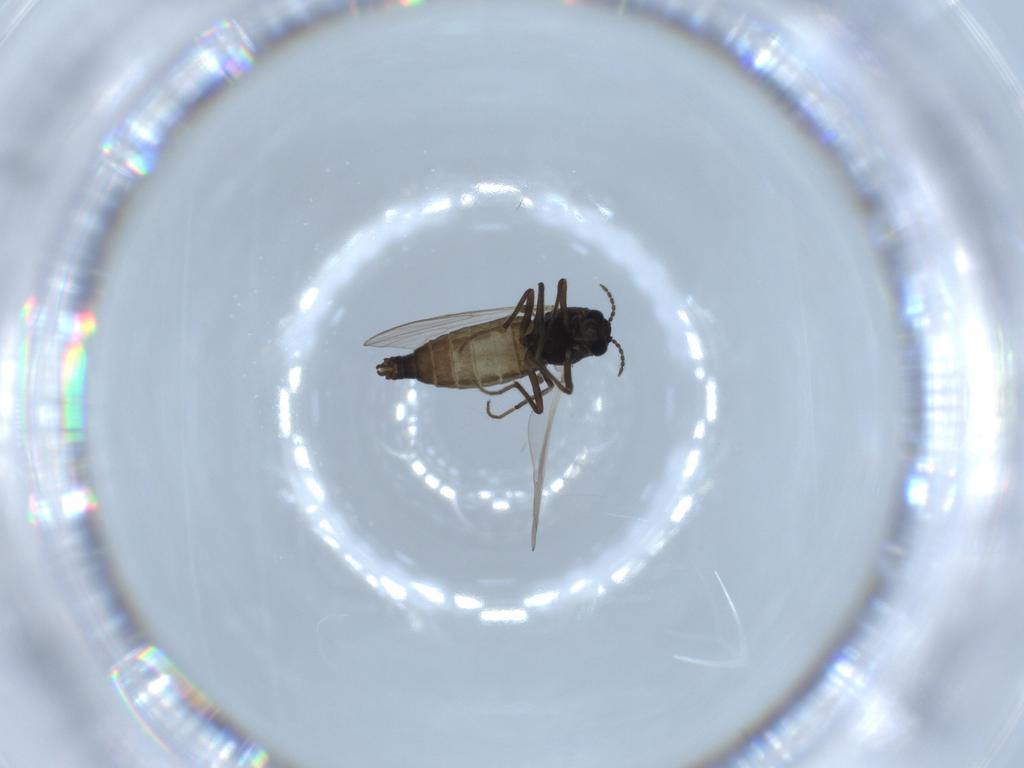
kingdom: Animalia
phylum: Arthropoda
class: Insecta
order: Diptera
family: Chironomidae
